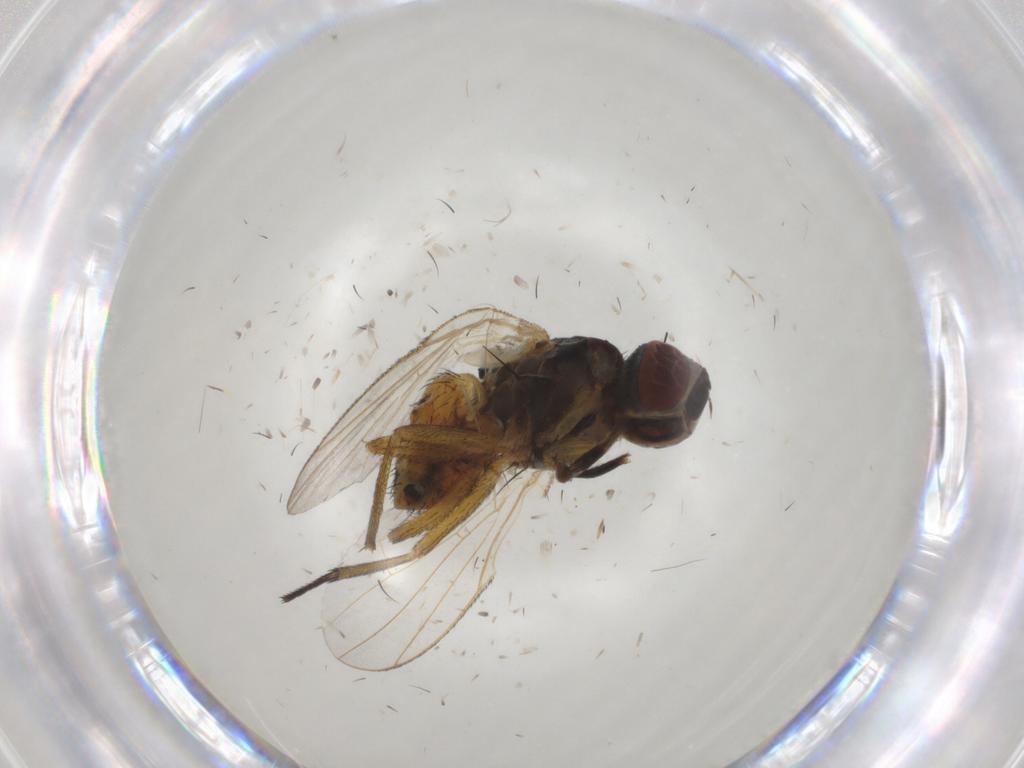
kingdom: Animalia
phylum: Arthropoda
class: Insecta
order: Diptera
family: Muscidae
